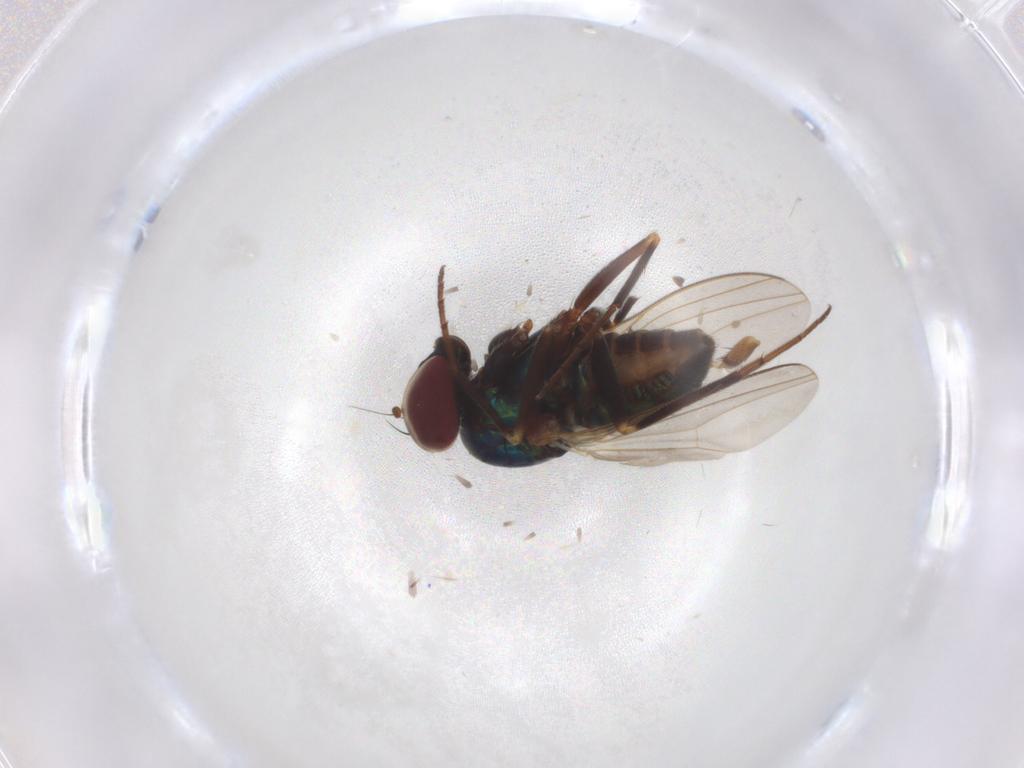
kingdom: Animalia
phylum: Arthropoda
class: Insecta
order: Diptera
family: Dolichopodidae
